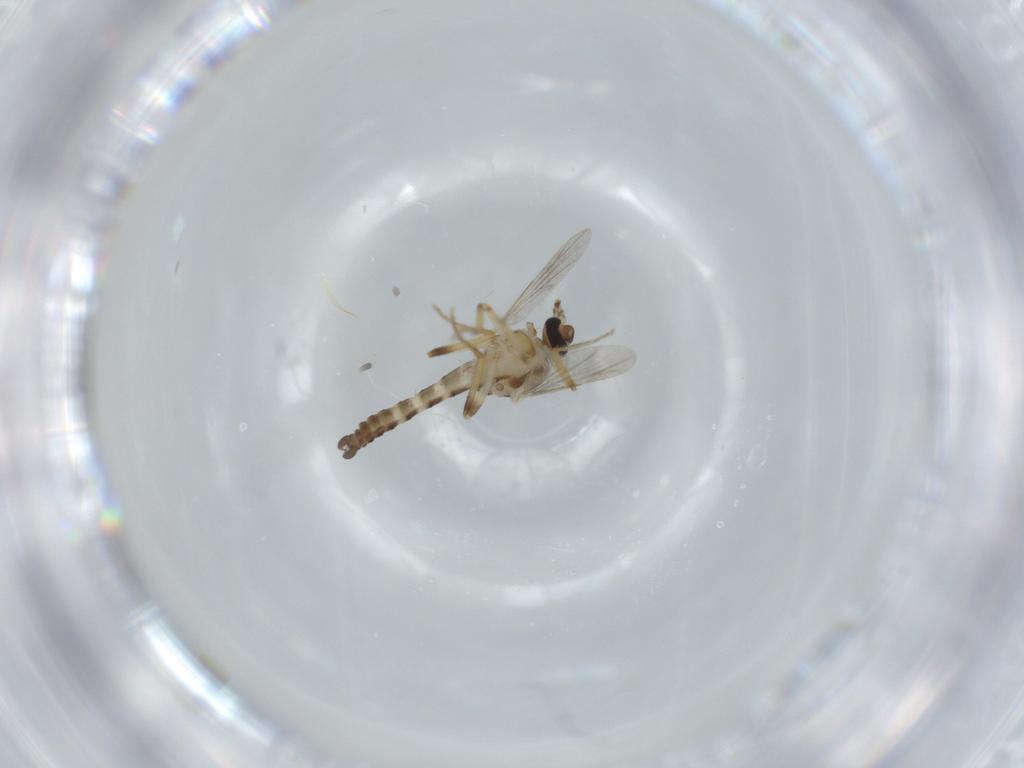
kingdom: Animalia
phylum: Arthropoda
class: Insecta
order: Diptera
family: Ceratopogonidae
